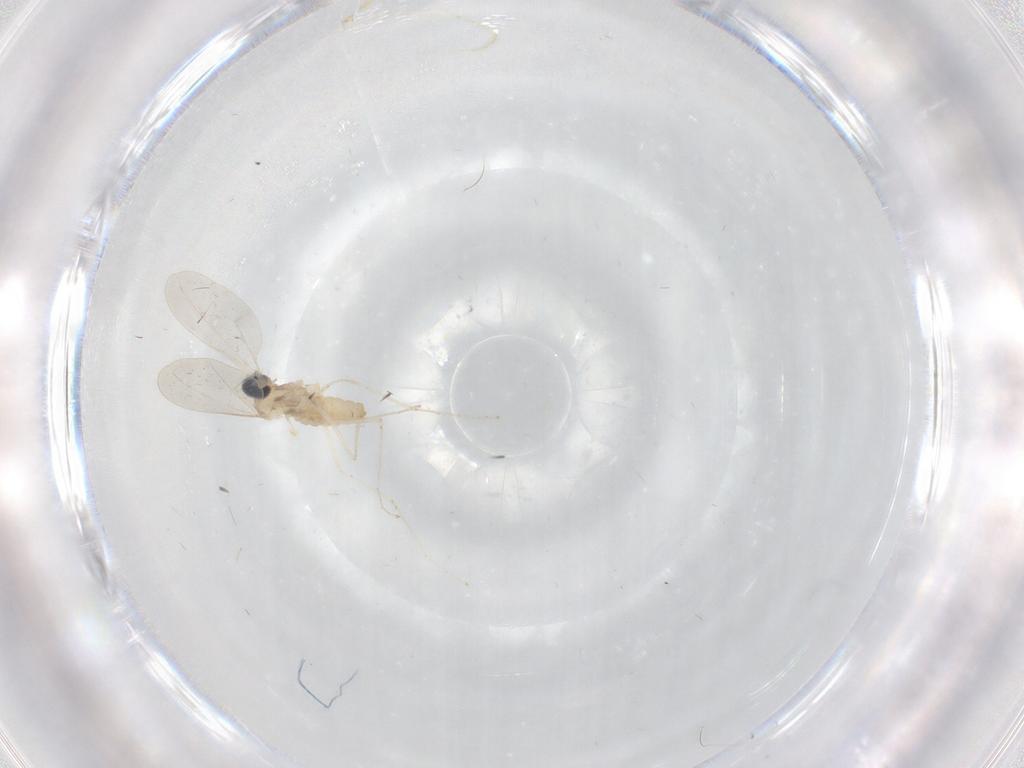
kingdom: Animalia
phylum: Arthropoda
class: Insecta
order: Diptera
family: Cecidomyiidae
